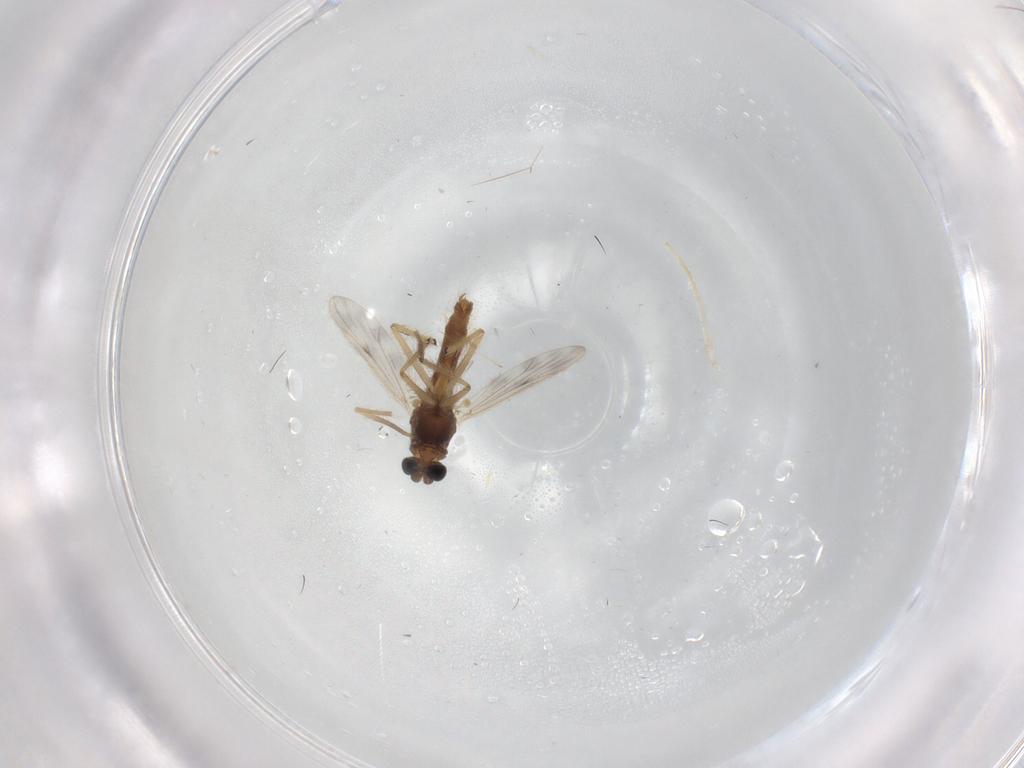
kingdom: Animalia
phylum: Arthropoda
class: Insecta
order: Diptera
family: Chironomidae
